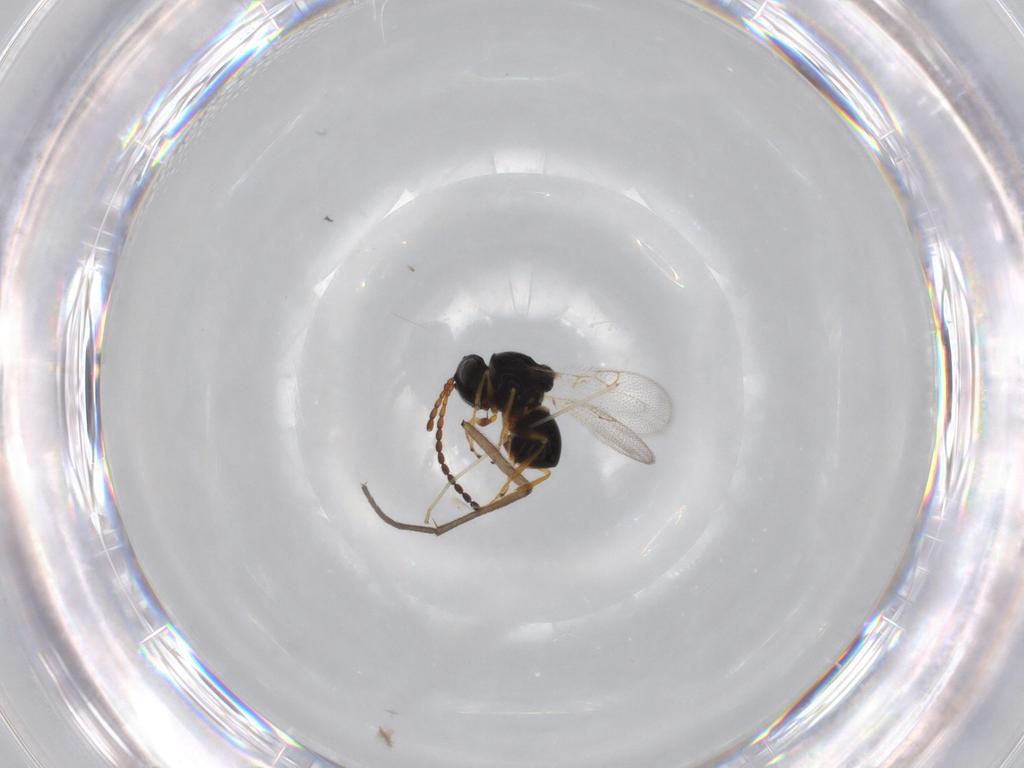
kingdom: Animalia
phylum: Arthropoda
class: Insecta
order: Hymenoptera
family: Figitidae
